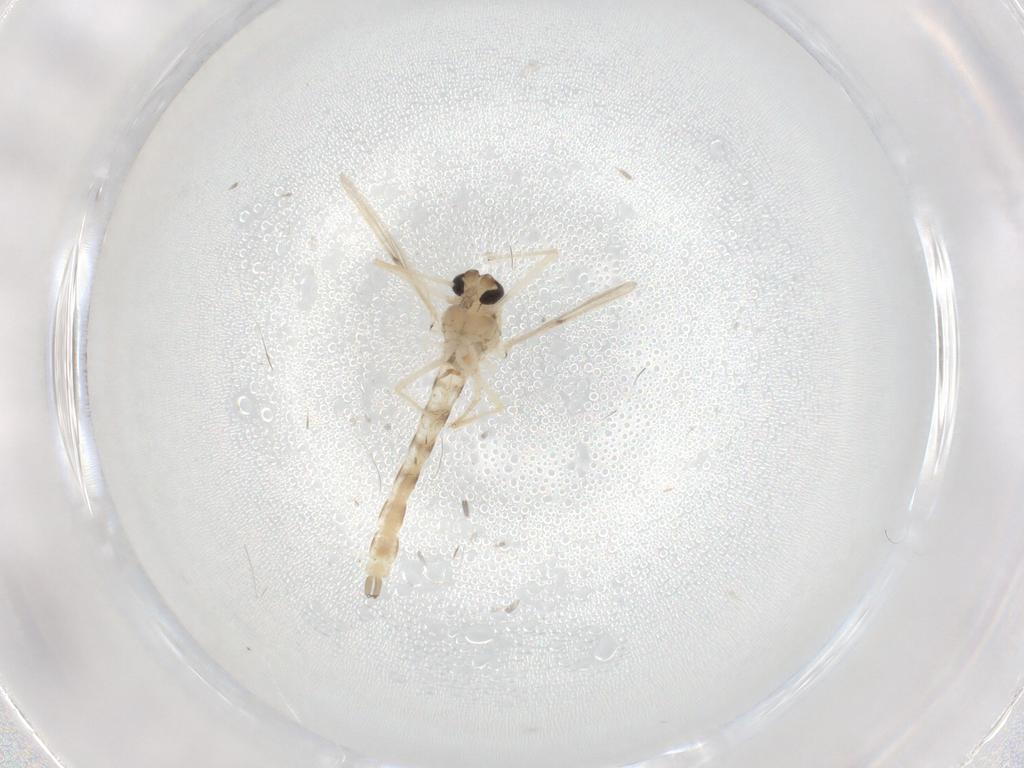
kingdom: Animalia
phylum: Arthropoda
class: Insecta
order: Diptera
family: Chironomidae
